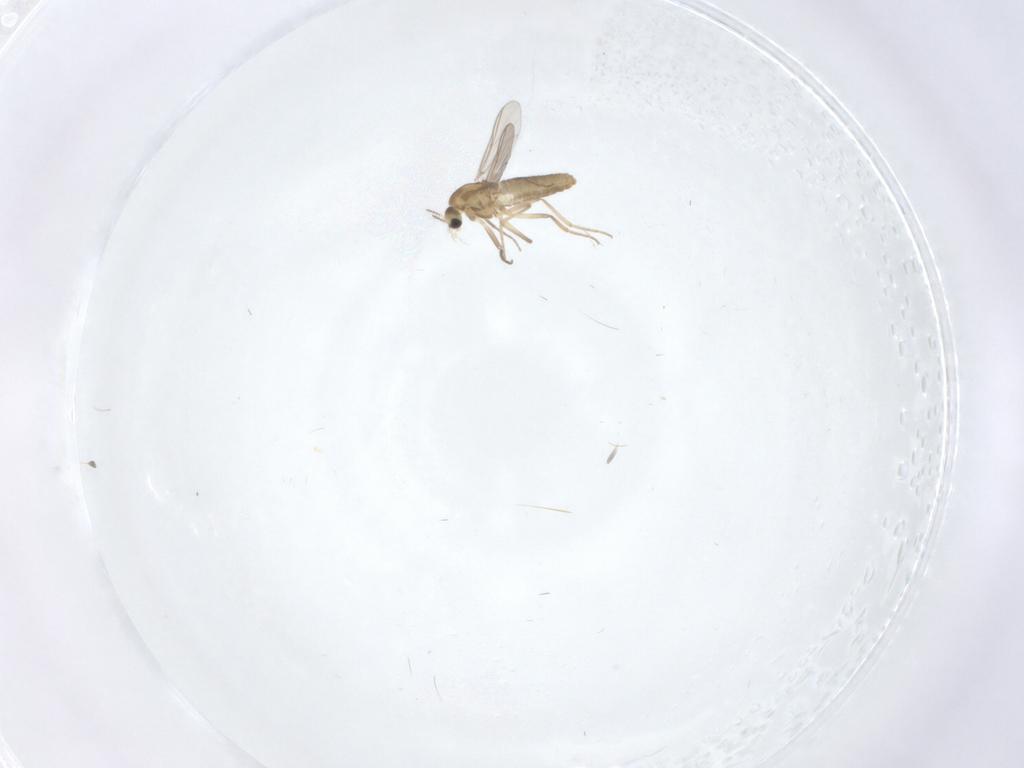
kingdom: Animalia
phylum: Arthropoda
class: Insecta
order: Diptera
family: Chironomidae
